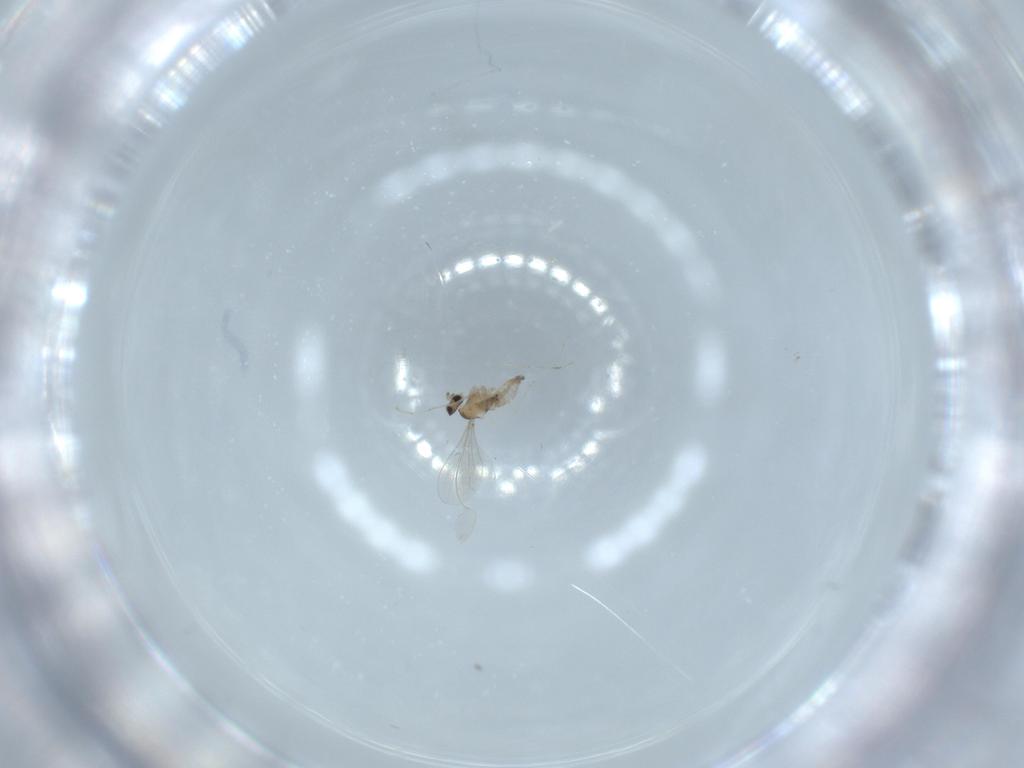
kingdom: Animalia
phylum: Arthropoda
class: Insecta
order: Diptera
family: Cecidomyiidae
